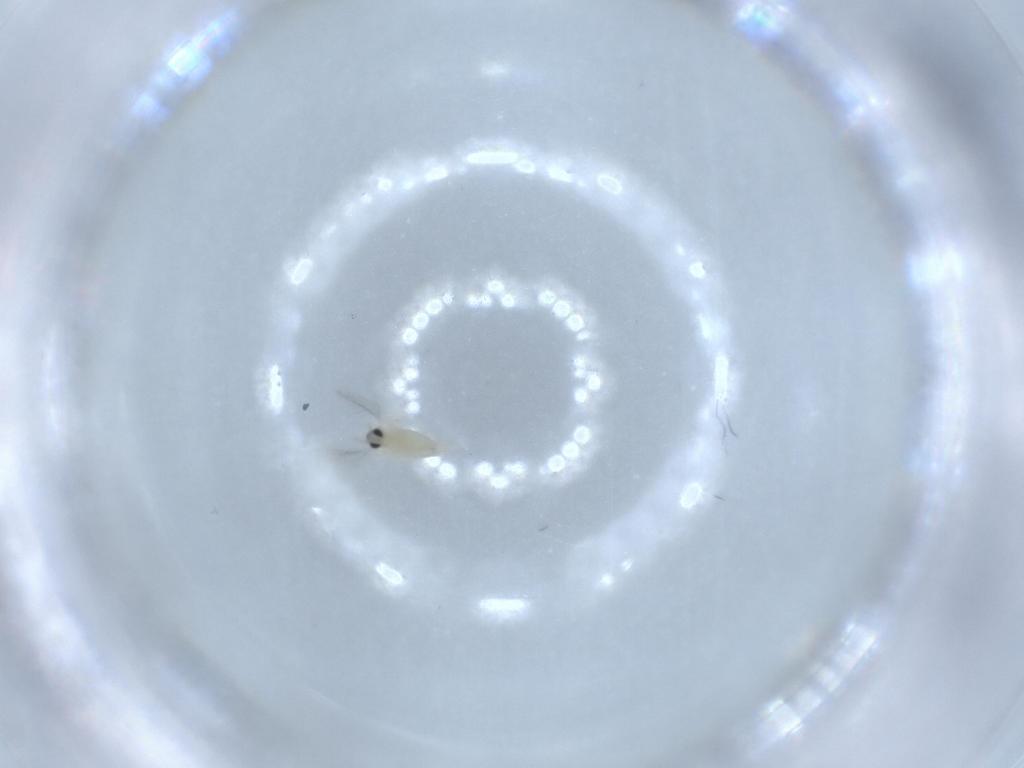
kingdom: Animalia
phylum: Arthropoda
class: Insecta
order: Diptera
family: Cecidomyiidae
